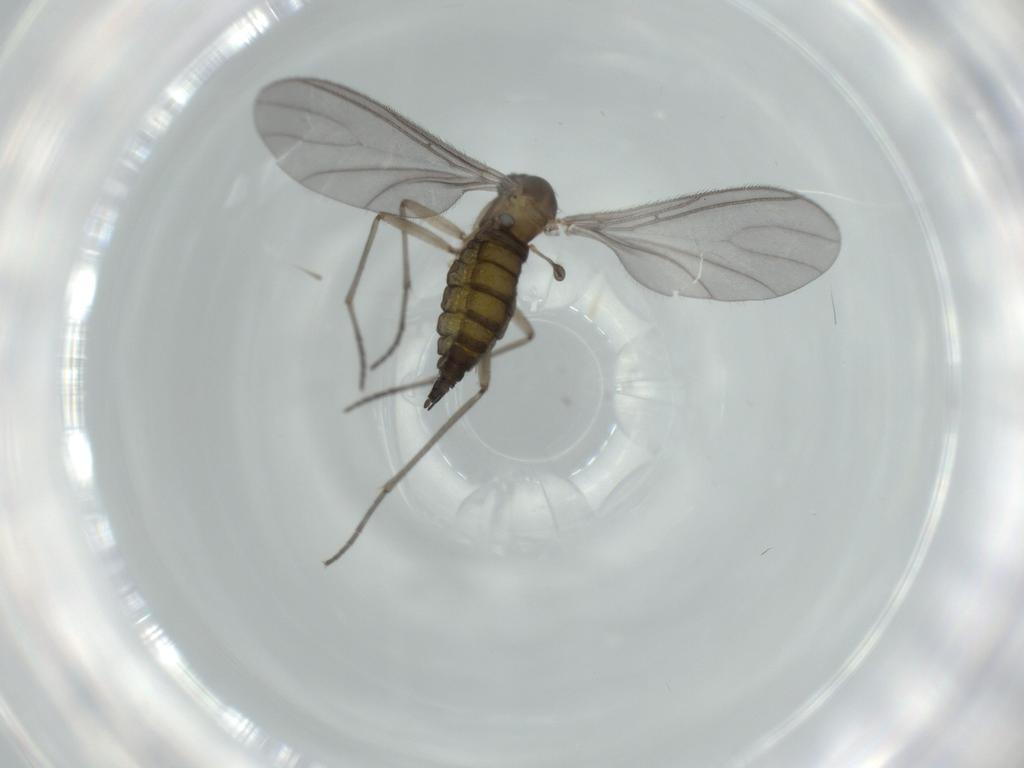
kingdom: Animalia
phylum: Arthropoda
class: Insecta
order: Diptera
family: Sciaridae
